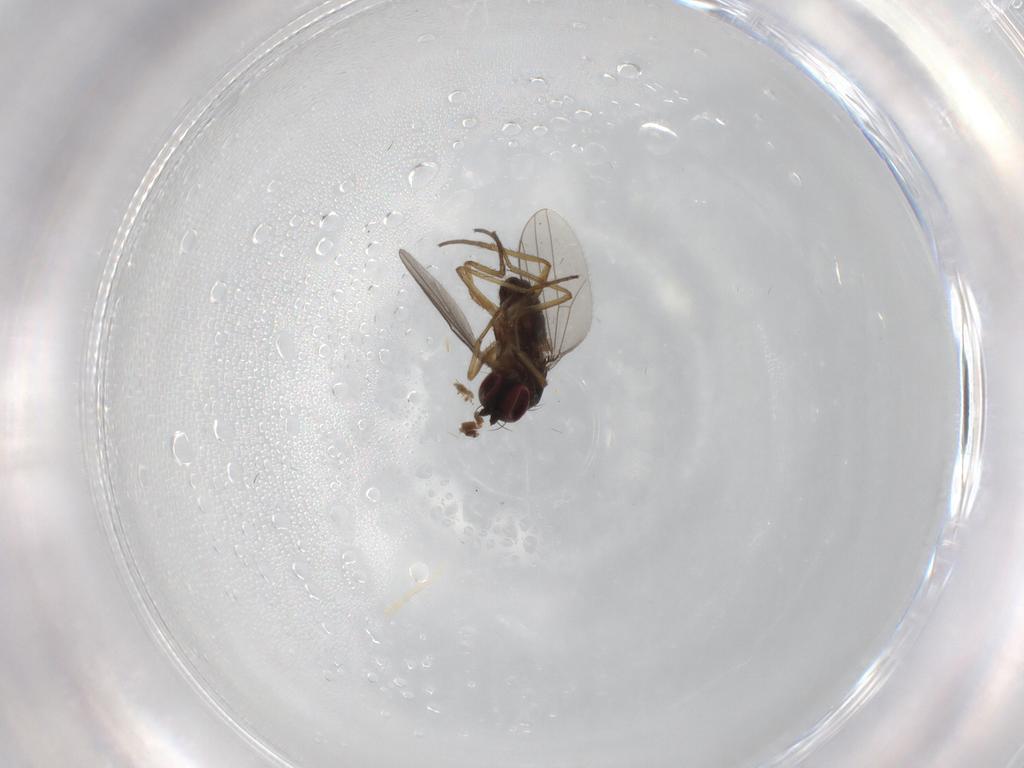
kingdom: Animalia
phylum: Arthropoda
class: Insecta
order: Diptera
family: Dolichopodidae
